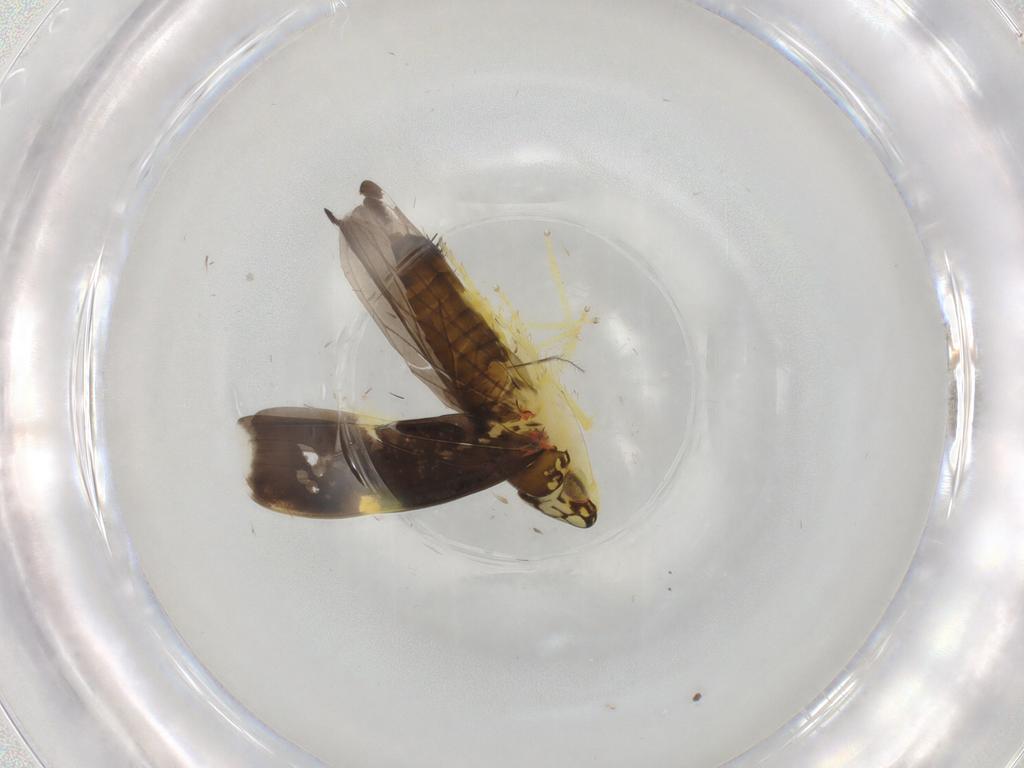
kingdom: Animalia
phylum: Arthropoda
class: Insecta
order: Hemiptera
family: Cicadellidae
